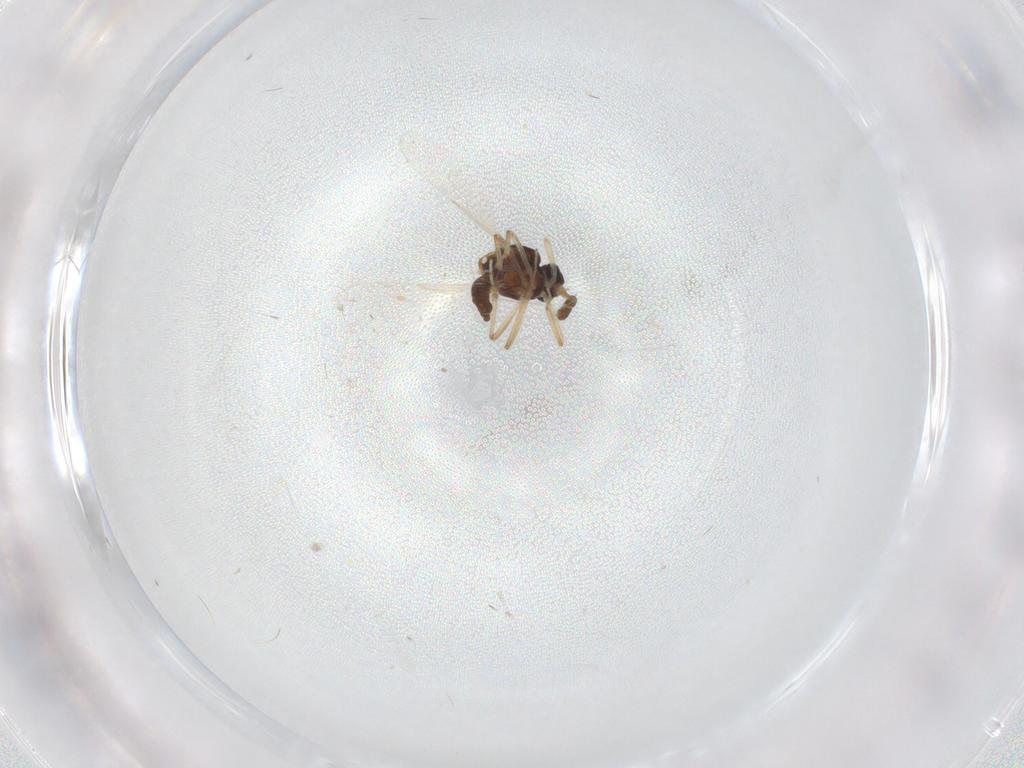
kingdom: Animalia
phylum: Arthropoda
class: Insecta
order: Diptera
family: Ceratopogonidae
